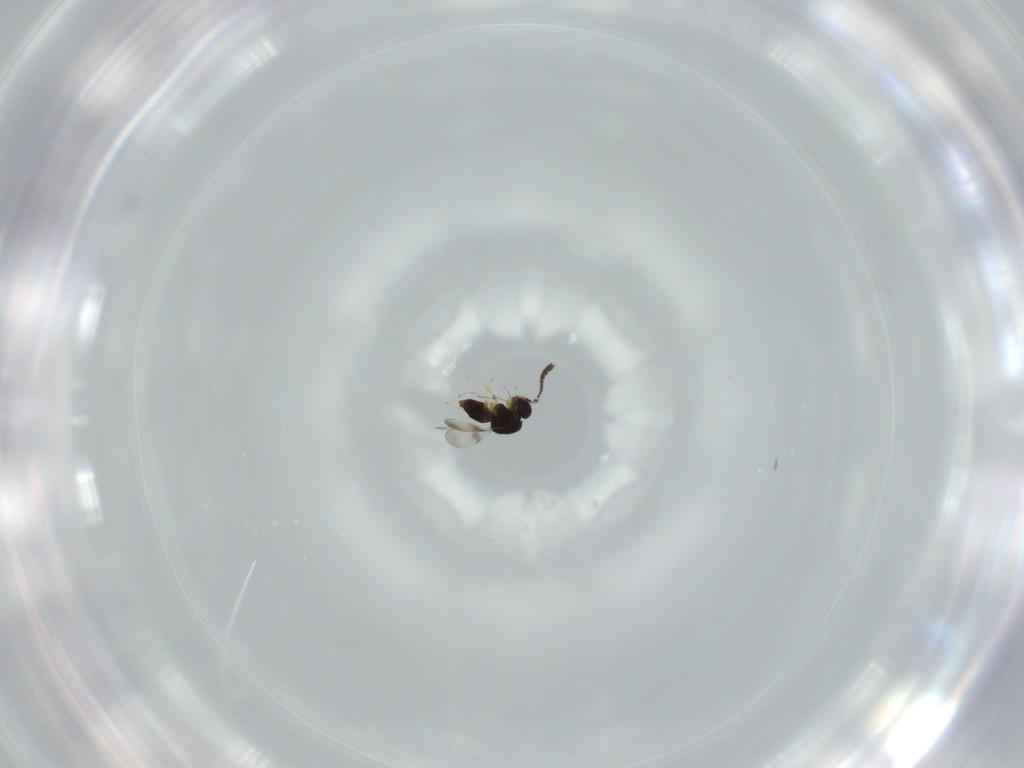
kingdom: Animalia
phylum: Arthropoda
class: Insecta
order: Hymenoptera
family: Ceraphronidae
